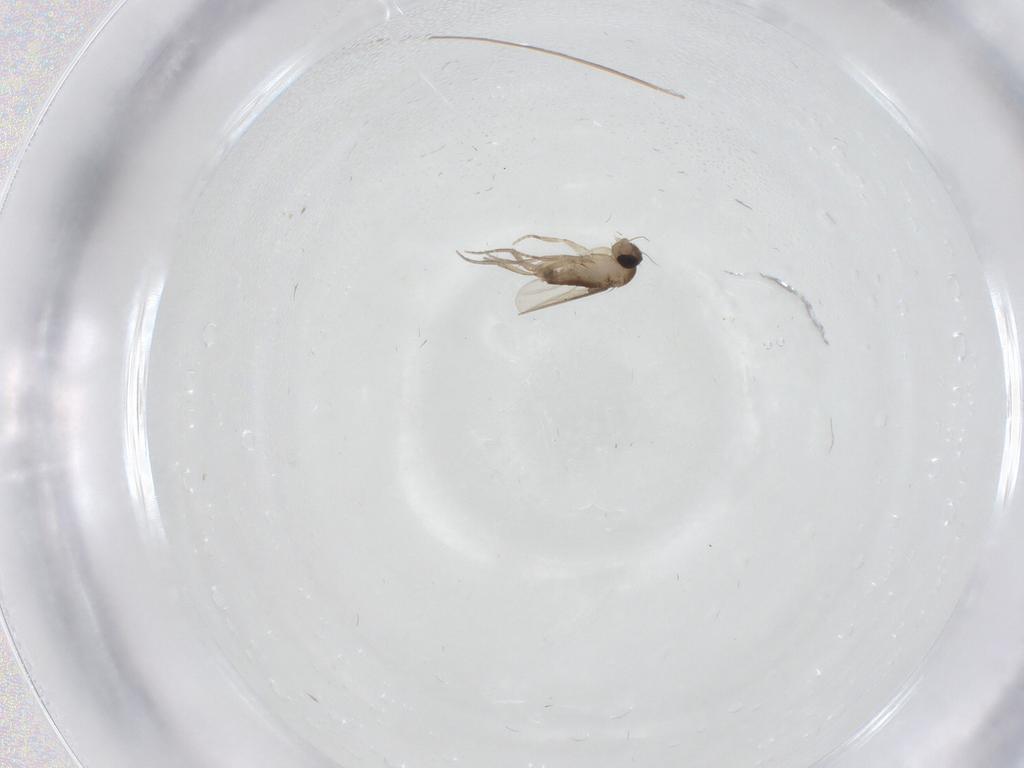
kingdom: Animalia
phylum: Arthropoda
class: Insecta
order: Diptera
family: Phoridae
